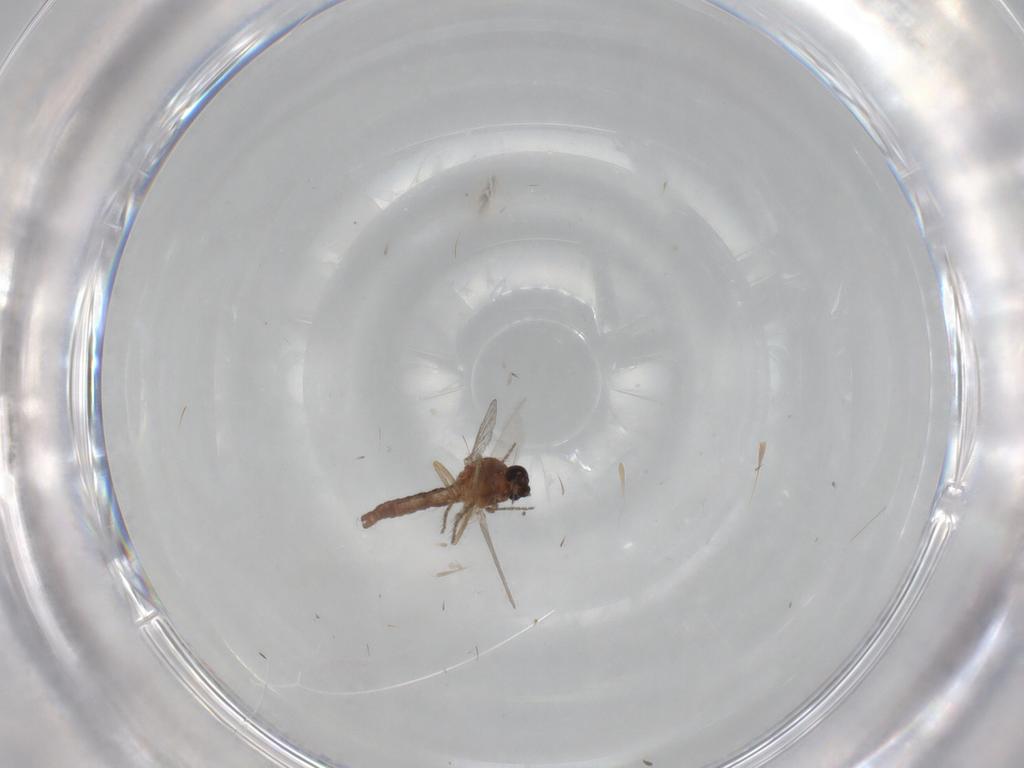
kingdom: Animalia
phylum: Arthropoda
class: Insecta
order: Diptera
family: Ceratopogonidae
